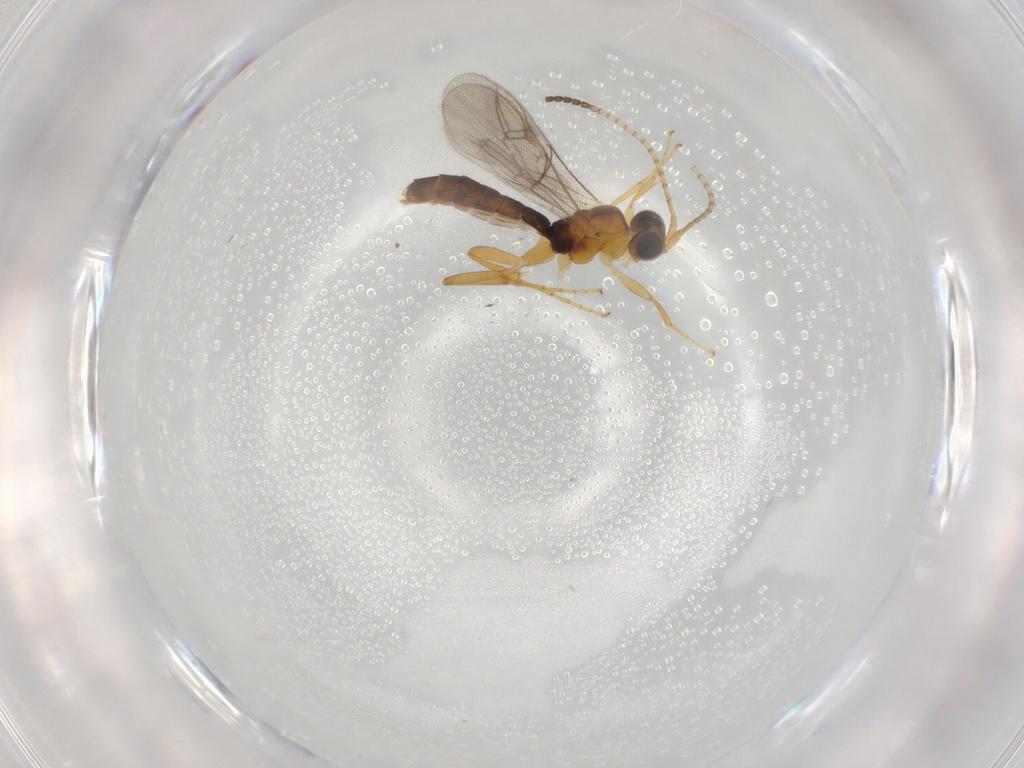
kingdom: Animalia
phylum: Arthropoda
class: Insecta
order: Hymenoptera
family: Ichneumonidae
